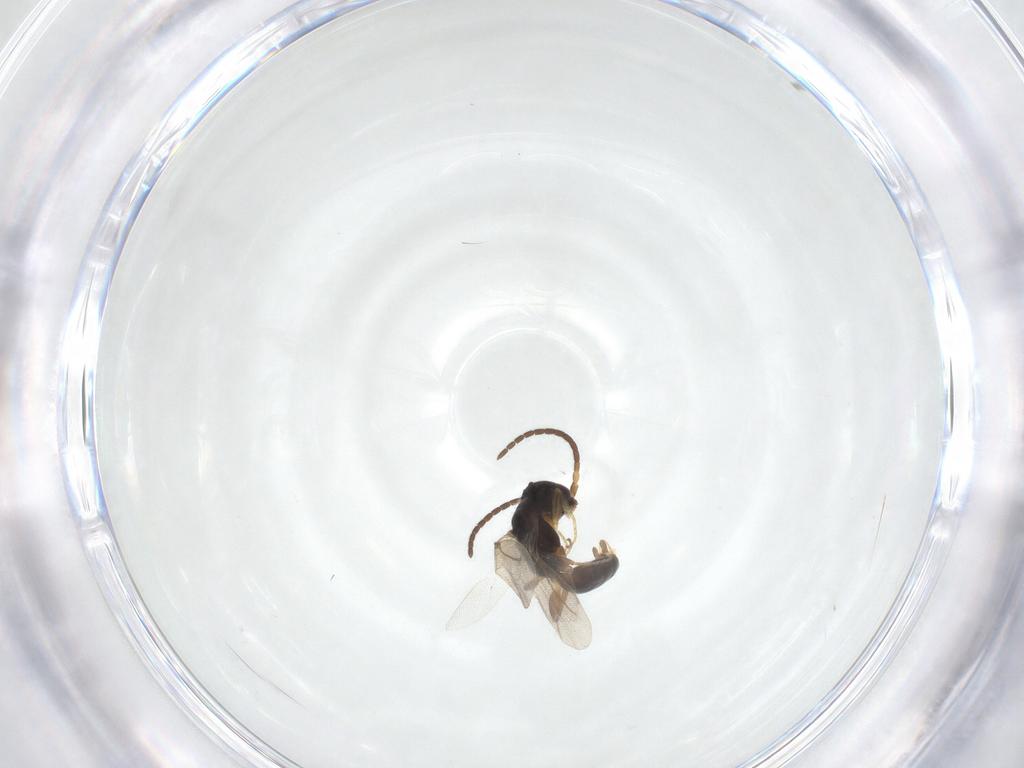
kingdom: Animalia
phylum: Arthropoda
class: Insecta
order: Hymenoptera
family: Bethylidae
